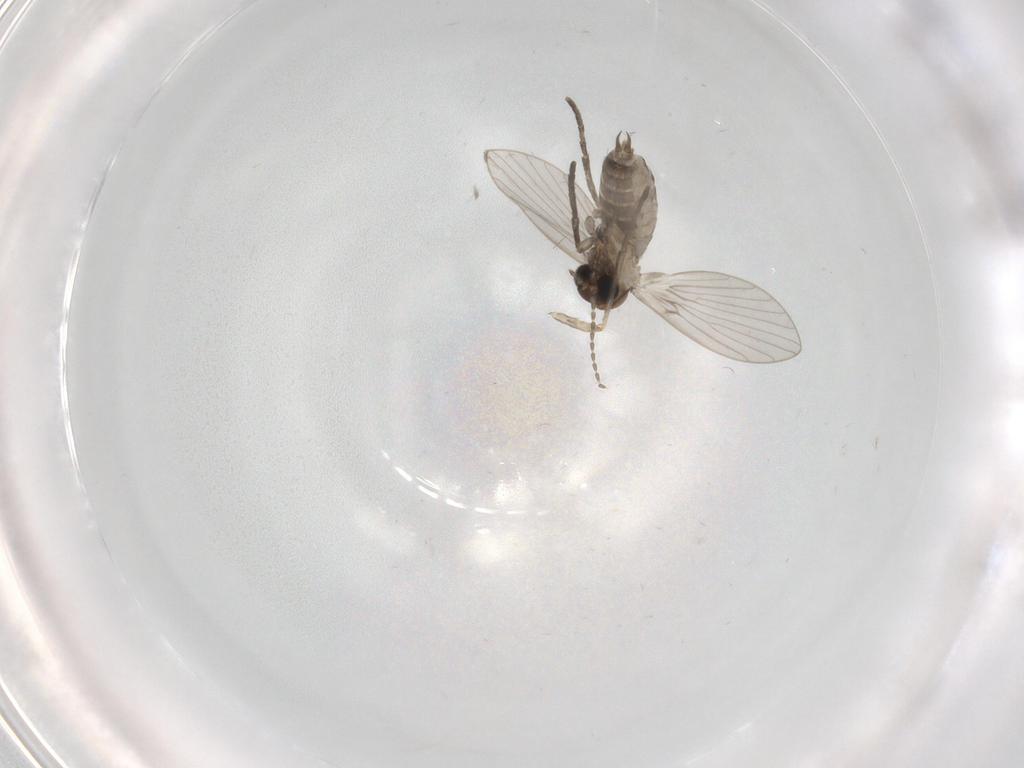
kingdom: Animalia
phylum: Arthropoda
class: Insecta
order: Diptera
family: Psychodidae
